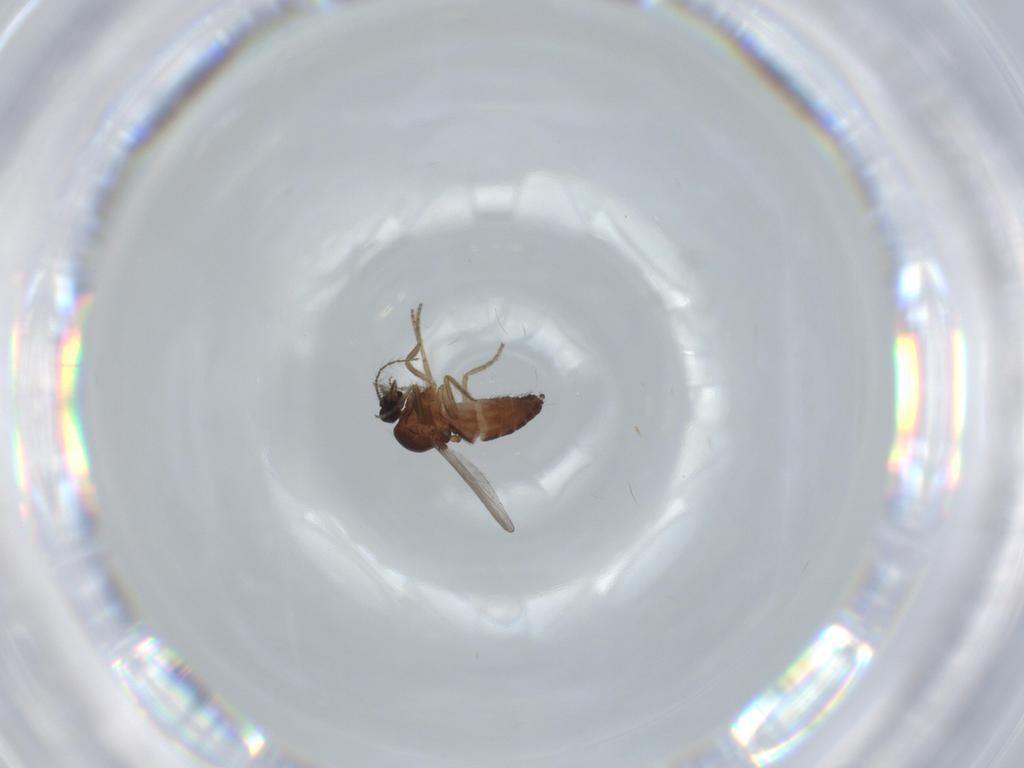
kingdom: Animalia
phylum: Arthropoda
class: Insecta
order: Diptera
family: Ceratopogonidae
